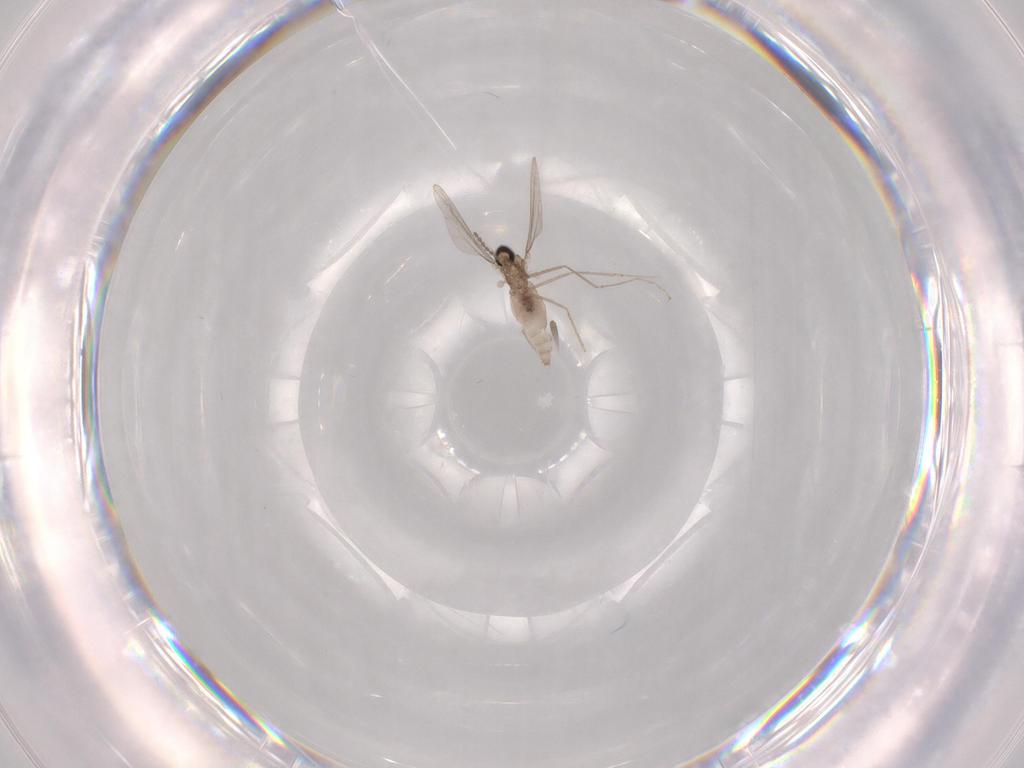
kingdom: Animalia
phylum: Arthropoda
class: Insecta
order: Diptera
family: Cecidomyiidae
